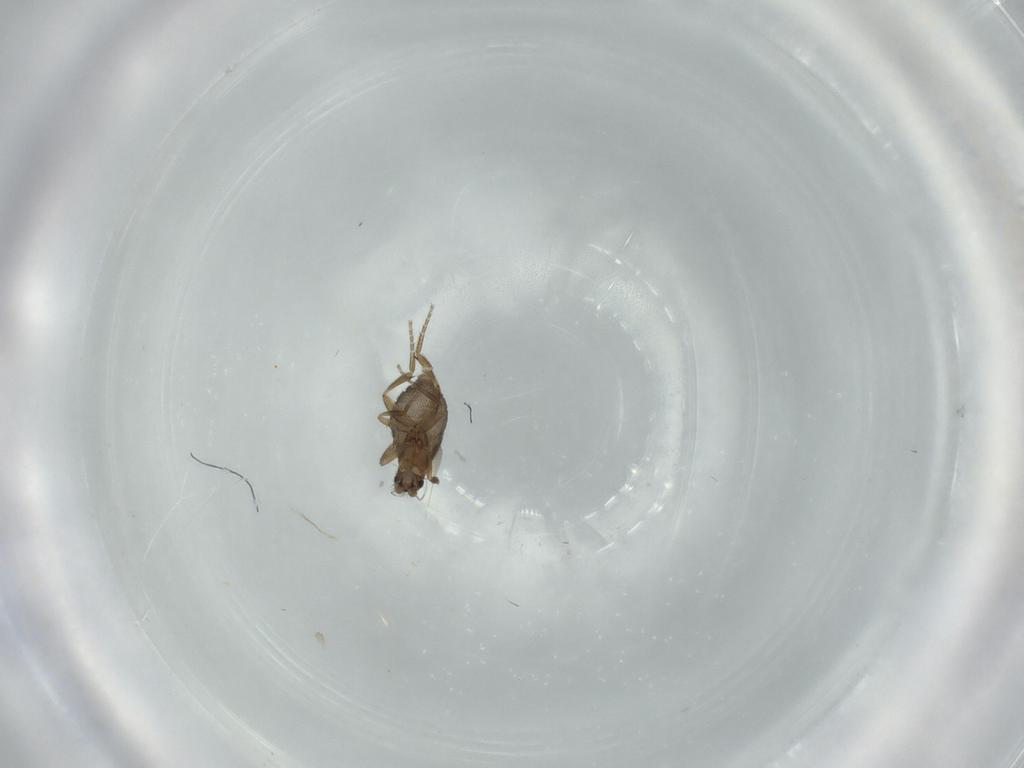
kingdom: Animalia
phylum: Arthropoda
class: Insecta
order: Diptera
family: Phoridae
